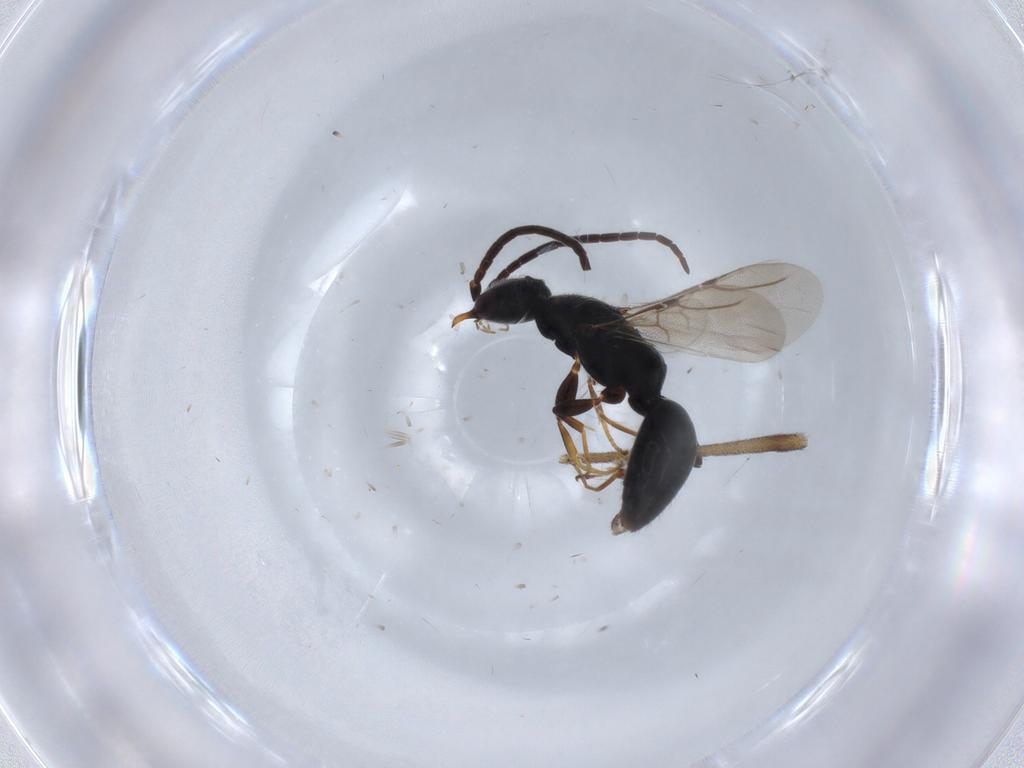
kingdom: Animalia
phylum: Arthropoda
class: Insecta
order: Hymenoptera
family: Bethylidae
